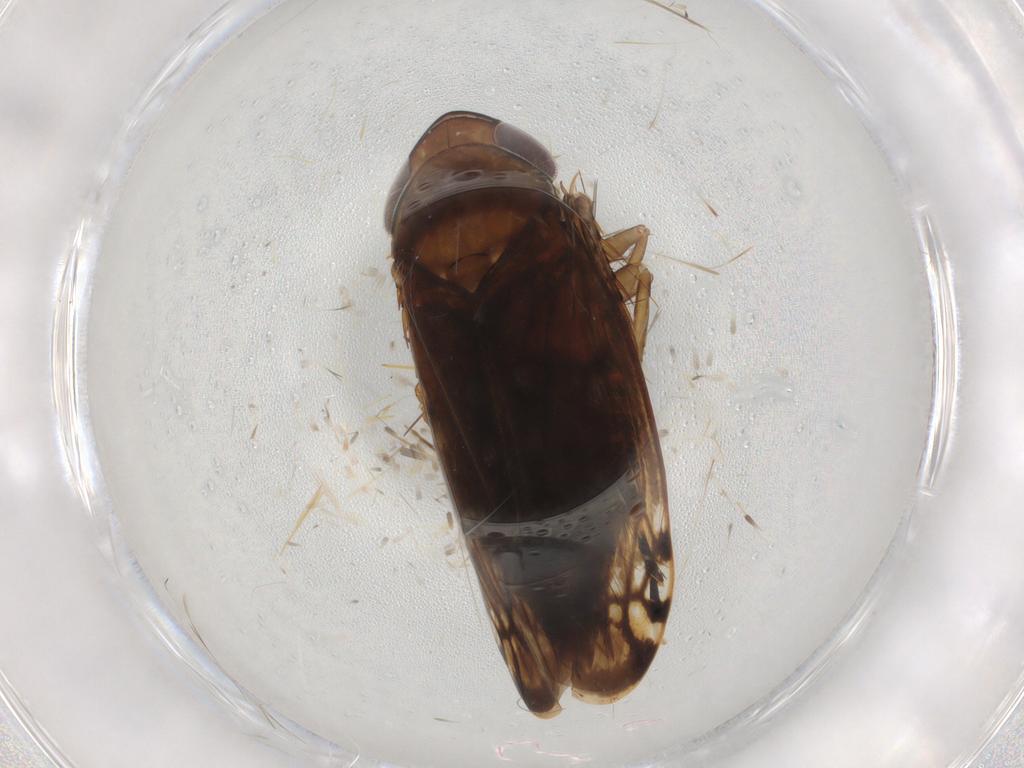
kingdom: Animalia
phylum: Arthropoda
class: Insecta
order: Hemiptera
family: Cicadellidae
